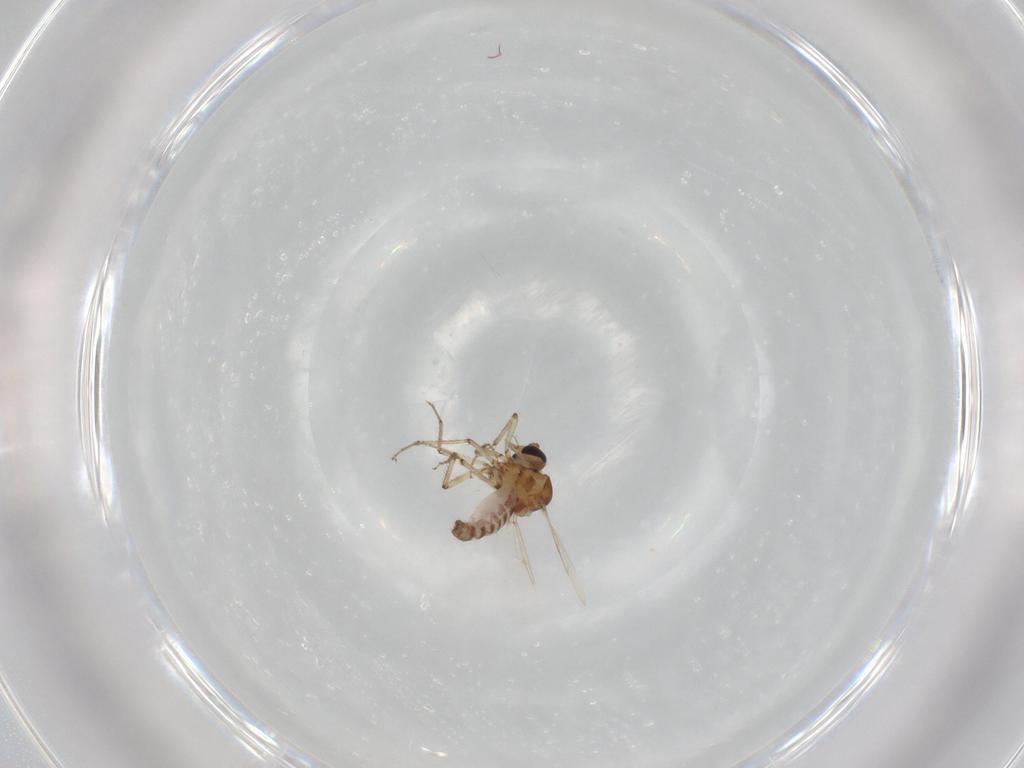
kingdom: Animalia
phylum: Arthropoda
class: Insecta
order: Diptera
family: Ceratopogonidae
